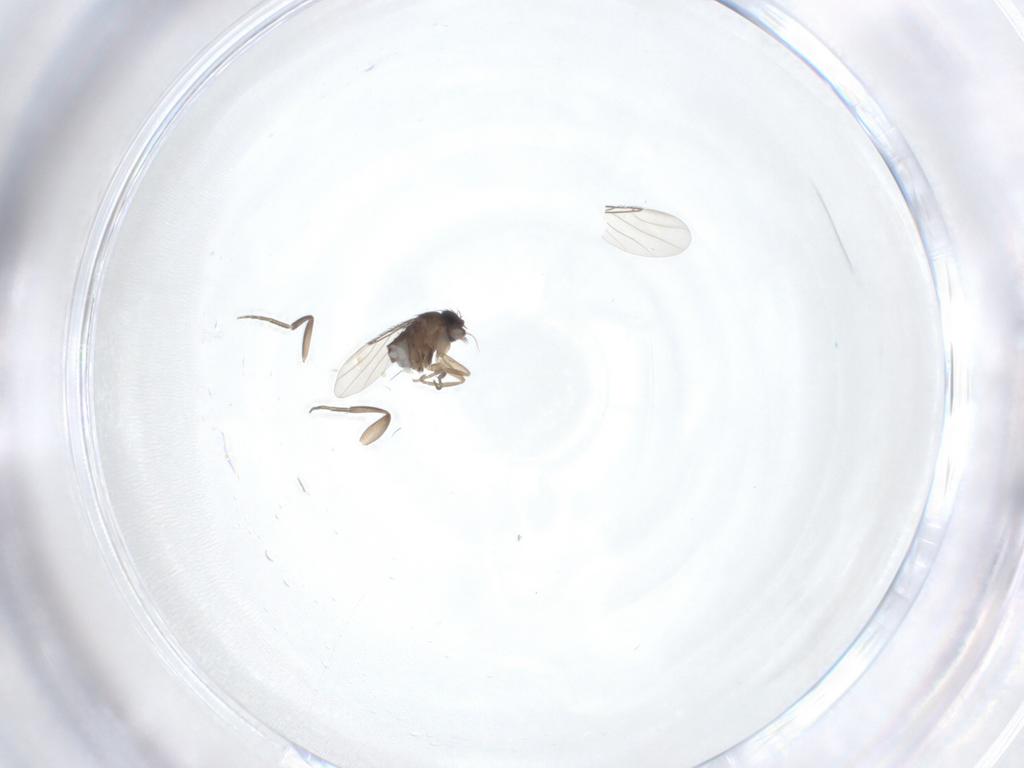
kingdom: Animalia
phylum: Arthropoda
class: Insecta
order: Diptera
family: Phoridae
